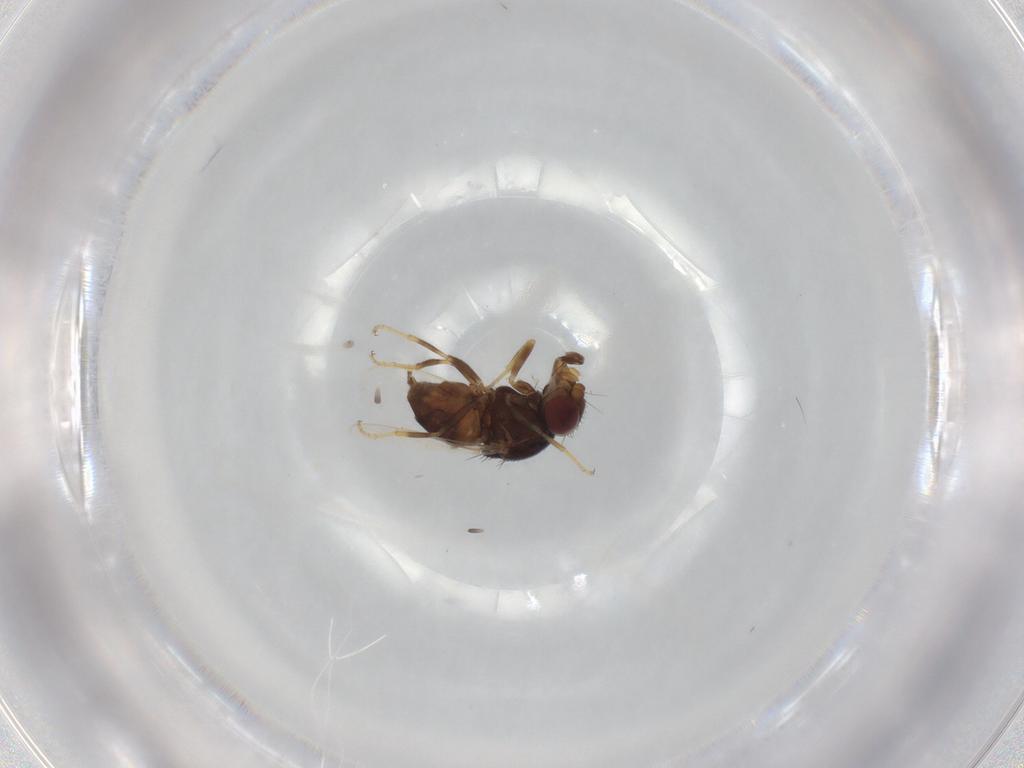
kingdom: Animalia
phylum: Arthropoda
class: Insecta
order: Diptera
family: Chloropidae
